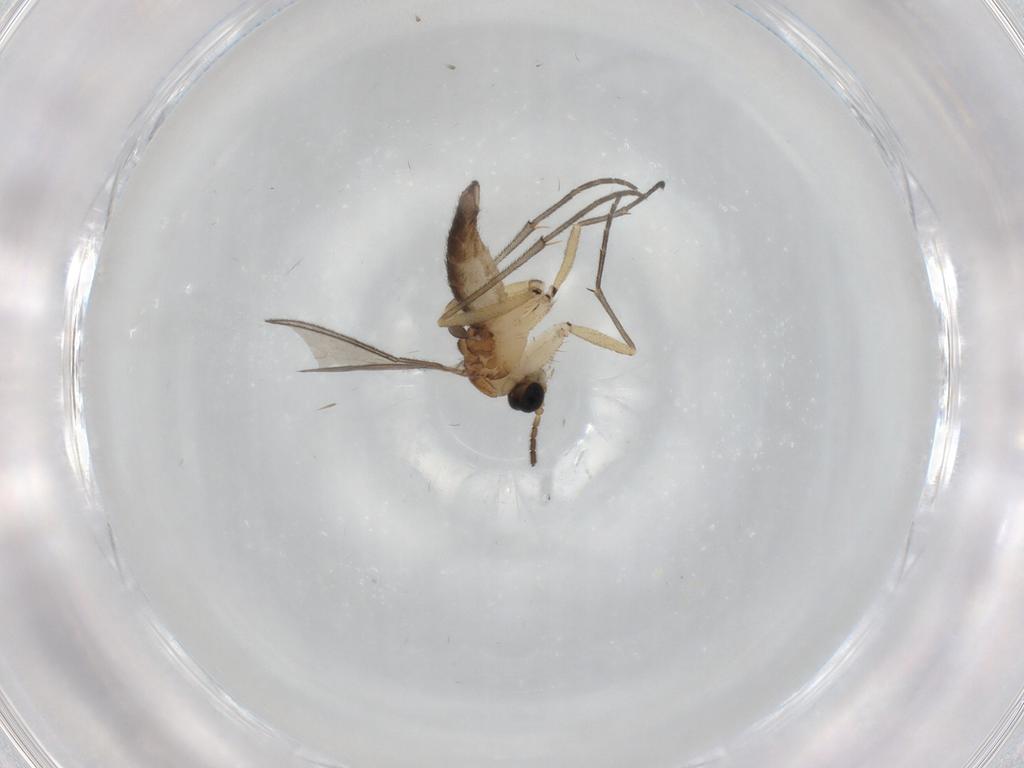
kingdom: Animalia
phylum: Arthropoda
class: Insecta
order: Diptera
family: Sciaridae
